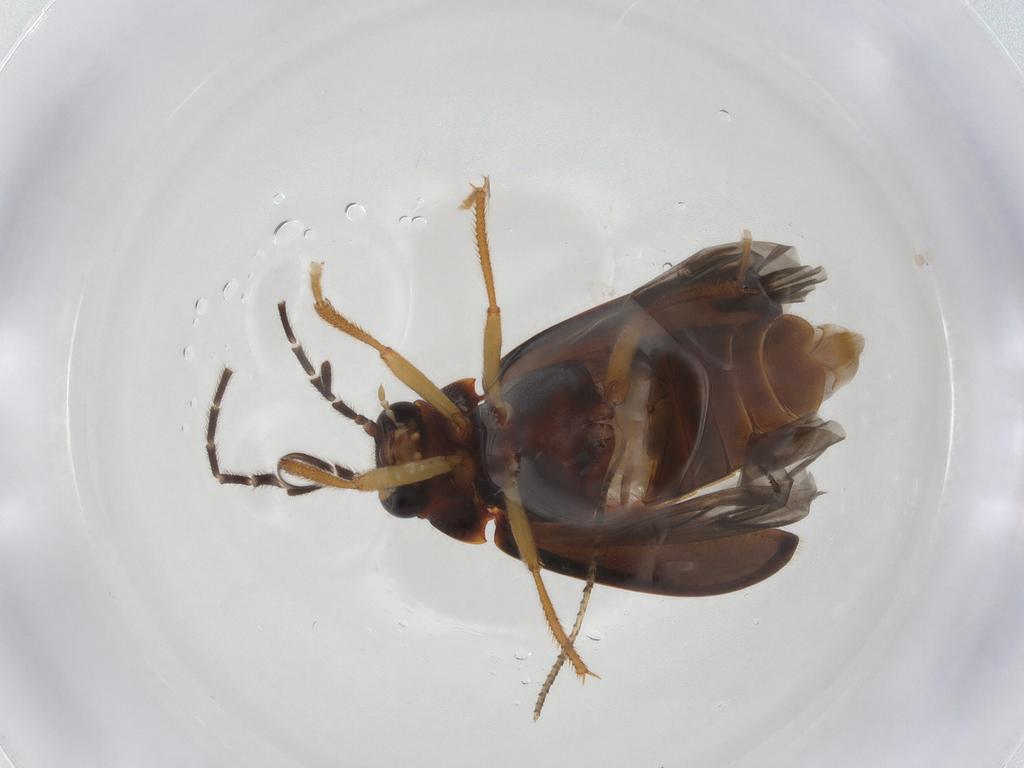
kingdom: Animalia
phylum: Arthropoda
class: Insecta
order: Coleoptera
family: Ptilodactylidae
